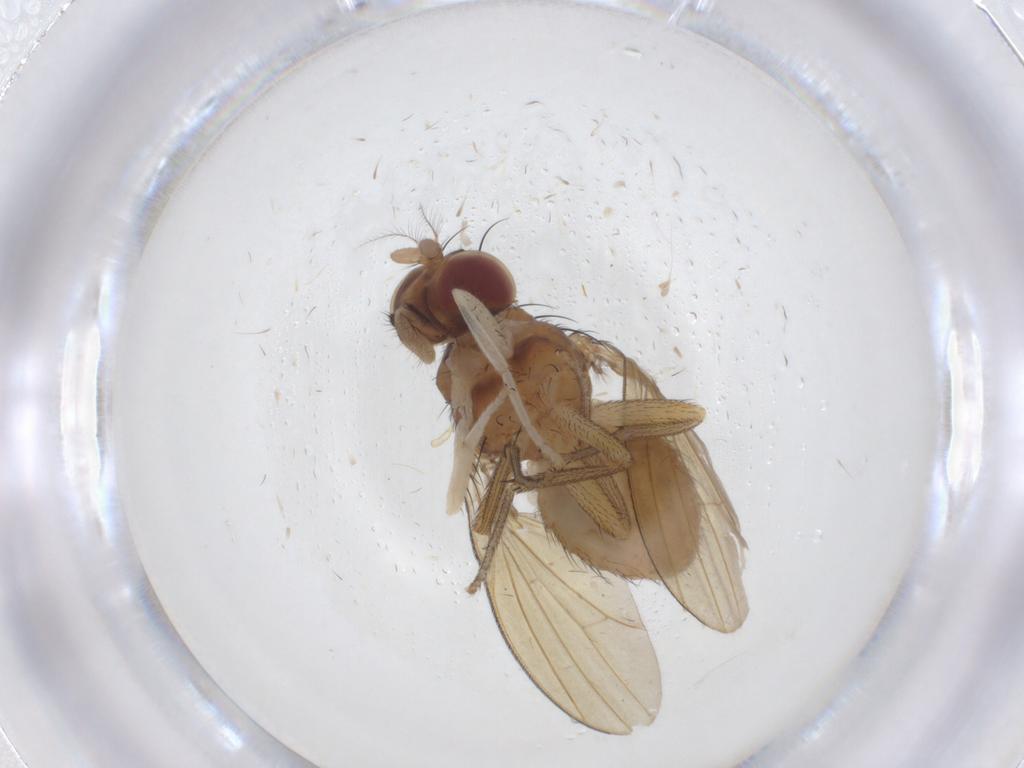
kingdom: Animalia
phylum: Arthropoda
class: Insecta
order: Diptera
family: Lauxaniidae
